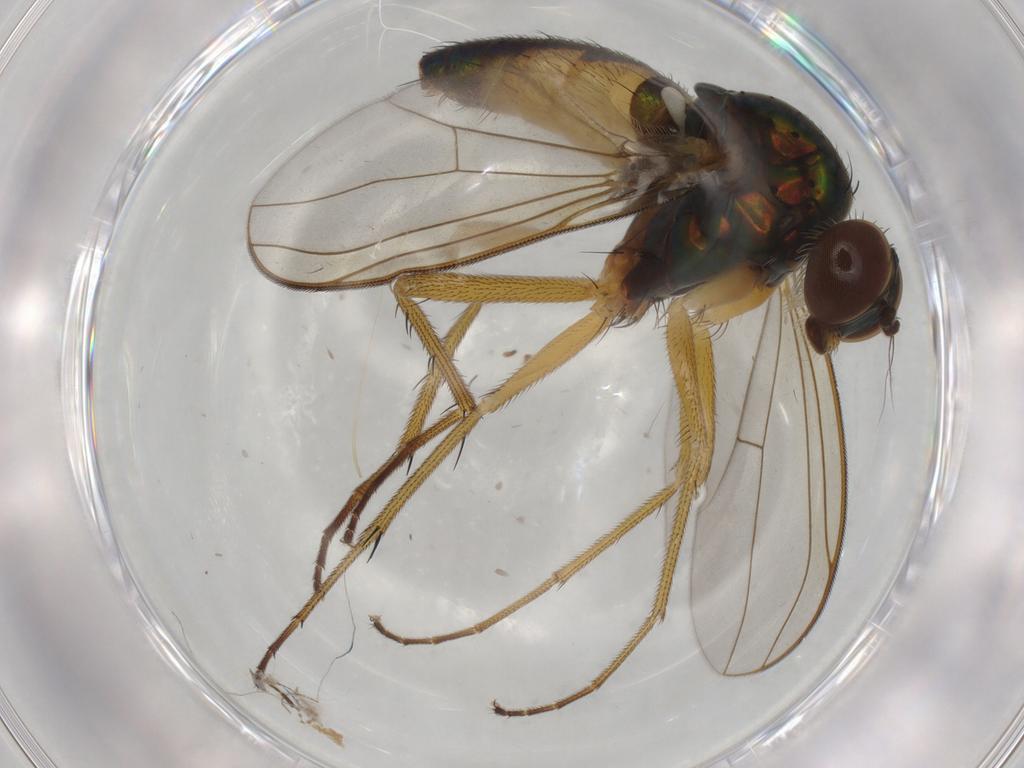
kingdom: Animalia
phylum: Arthropoda
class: Insecta
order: Diptera
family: Scatopsidae
